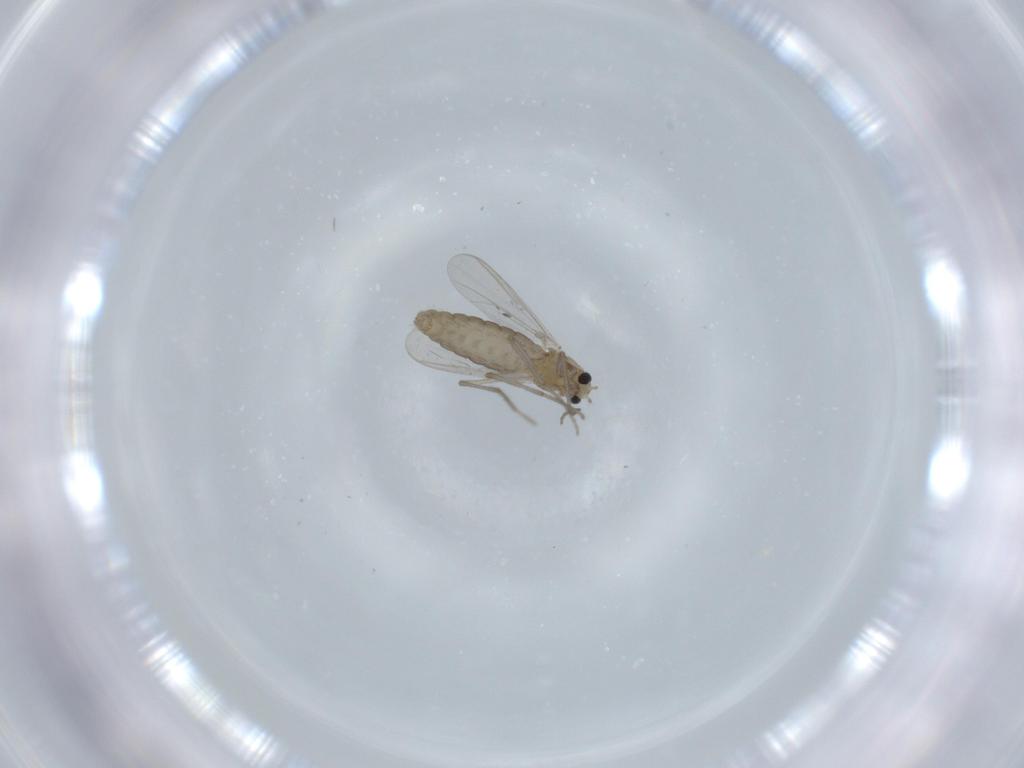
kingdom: Animalia
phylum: Arthropoda
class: Insecta
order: Diptera
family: Chironomidae
